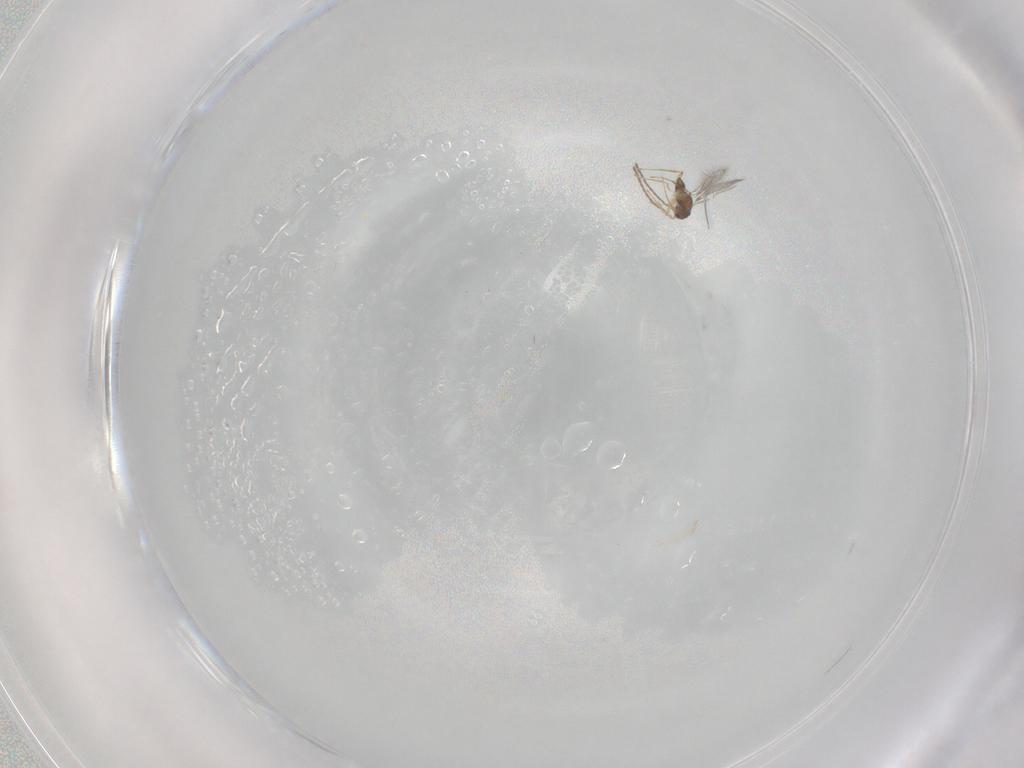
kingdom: Animalia
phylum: Arthropoda
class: Insecta
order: Hymenoptera
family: Mymaridae
